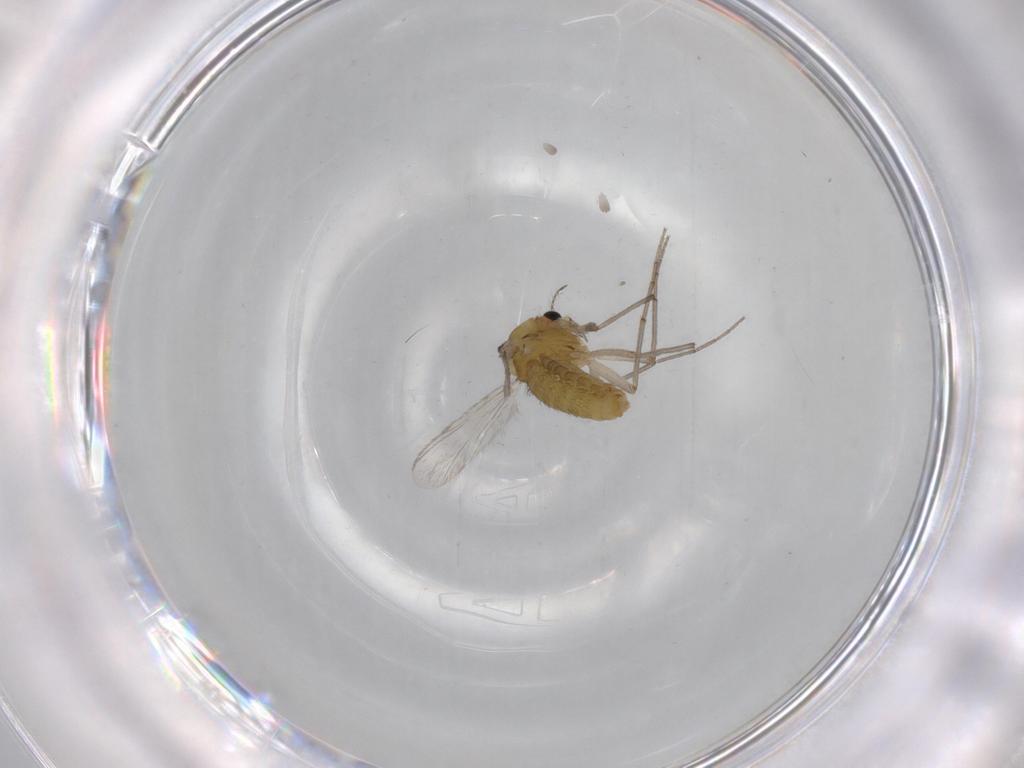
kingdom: Animalia
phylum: Arthropoda
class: Insecta
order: Diptera
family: Chironomidae
